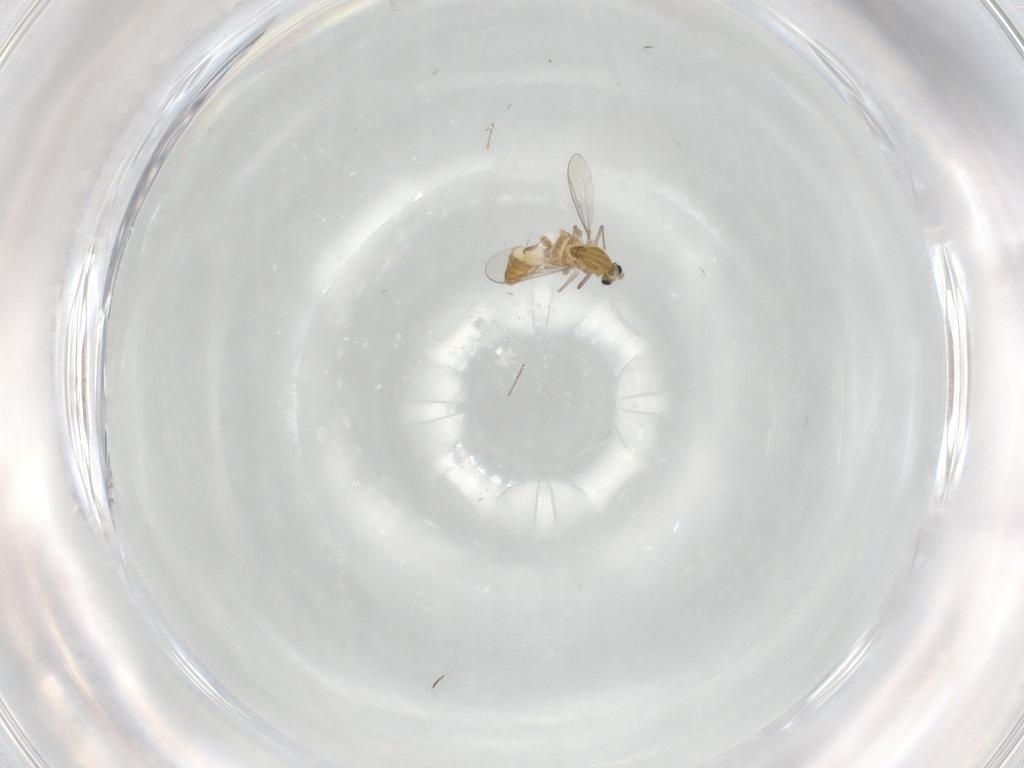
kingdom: Animalia
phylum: Arthropoda
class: Insecta
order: Diptera
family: Chironomidae
